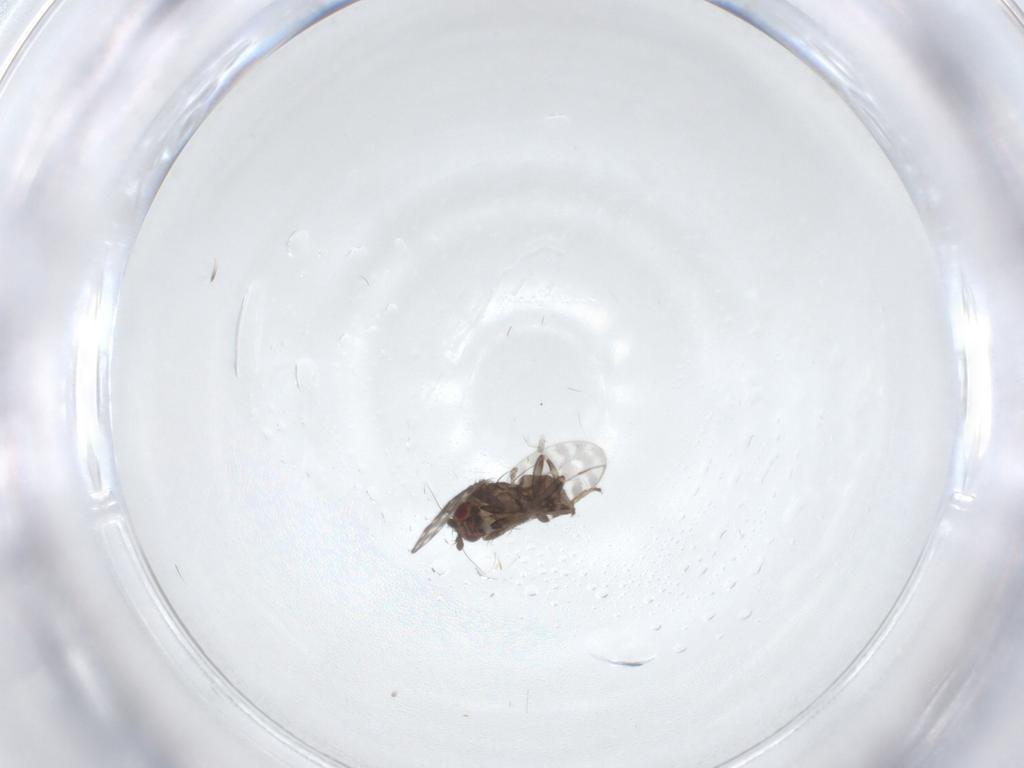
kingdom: Animalia
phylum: Arthropoda
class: Insecta
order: Diptera
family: Sphaeroceridae
